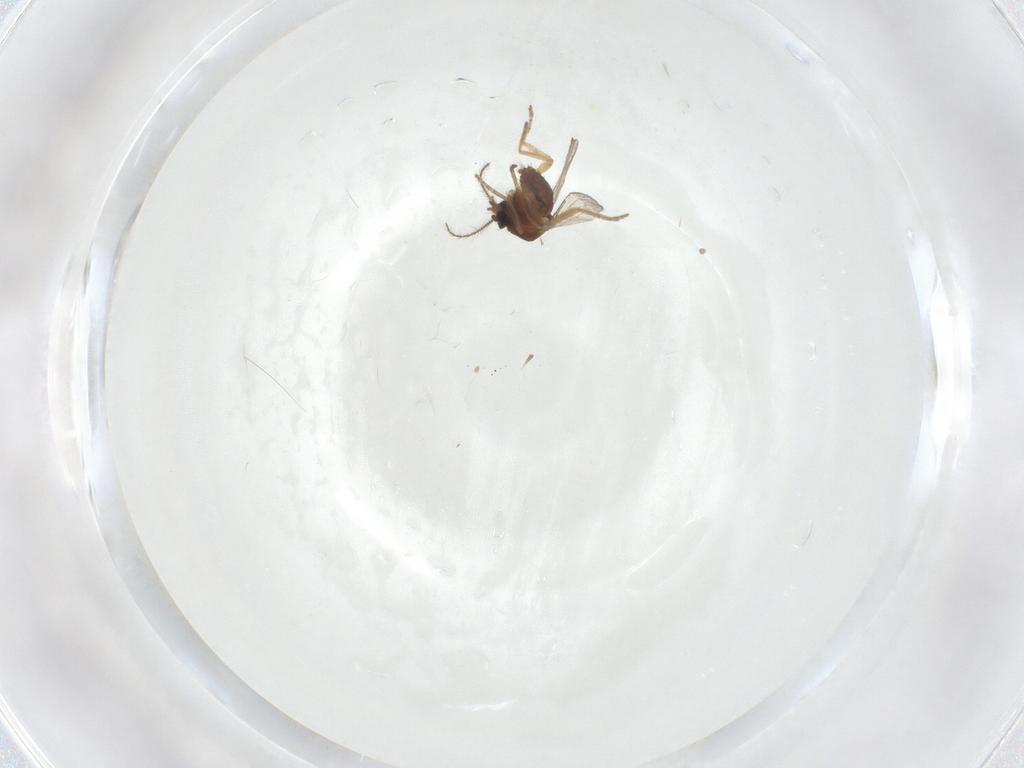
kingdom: Animalia
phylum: Arthropoda
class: Insecta
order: Diptera
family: Ceratopogonidae
